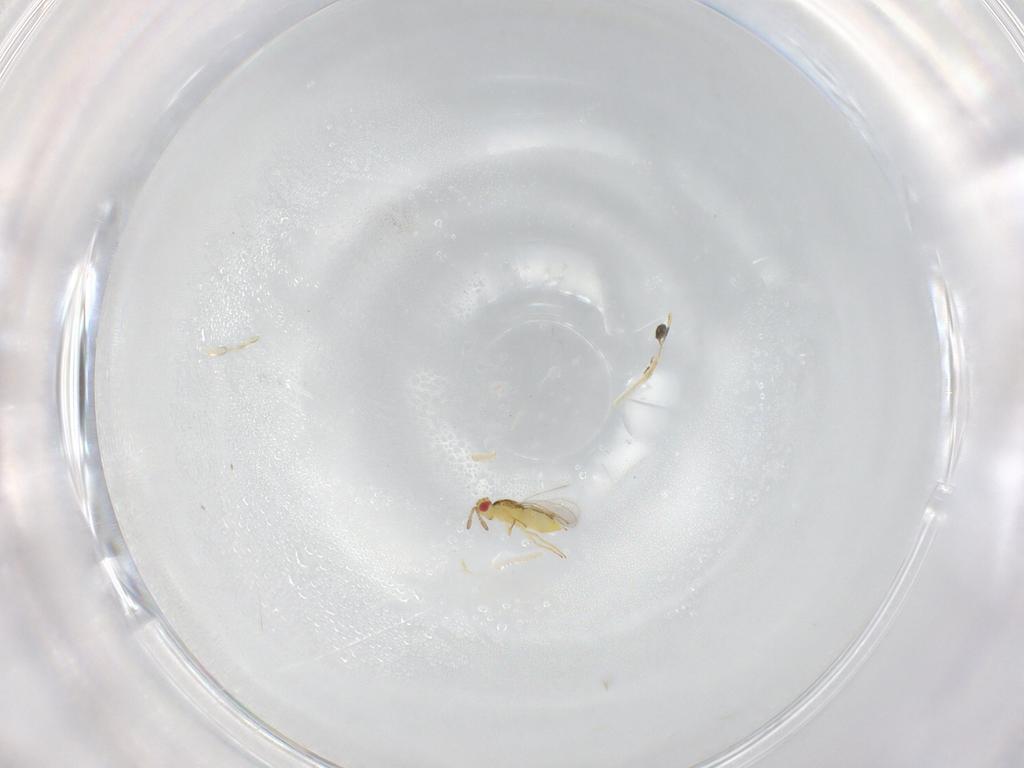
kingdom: Animalia
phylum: Arthropoda
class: Insecta
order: Hymenoptera
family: Aphelinidae
